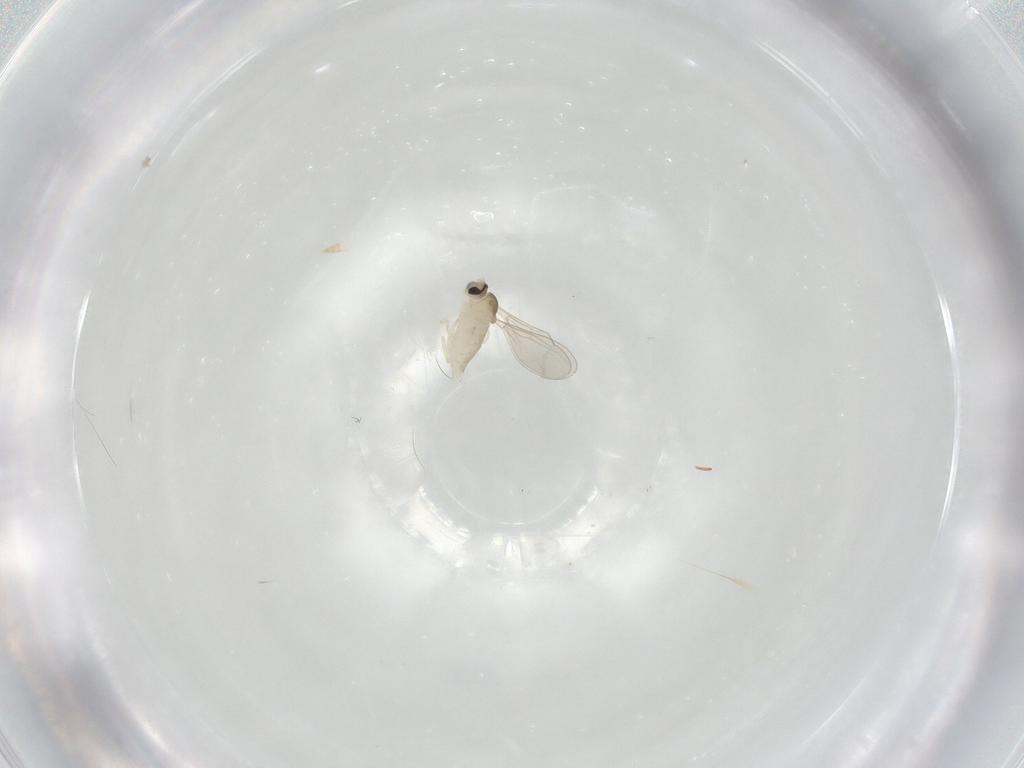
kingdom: Animalia
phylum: Arthropoda
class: Insecta
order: Diptera
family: Cecidomyiidae
